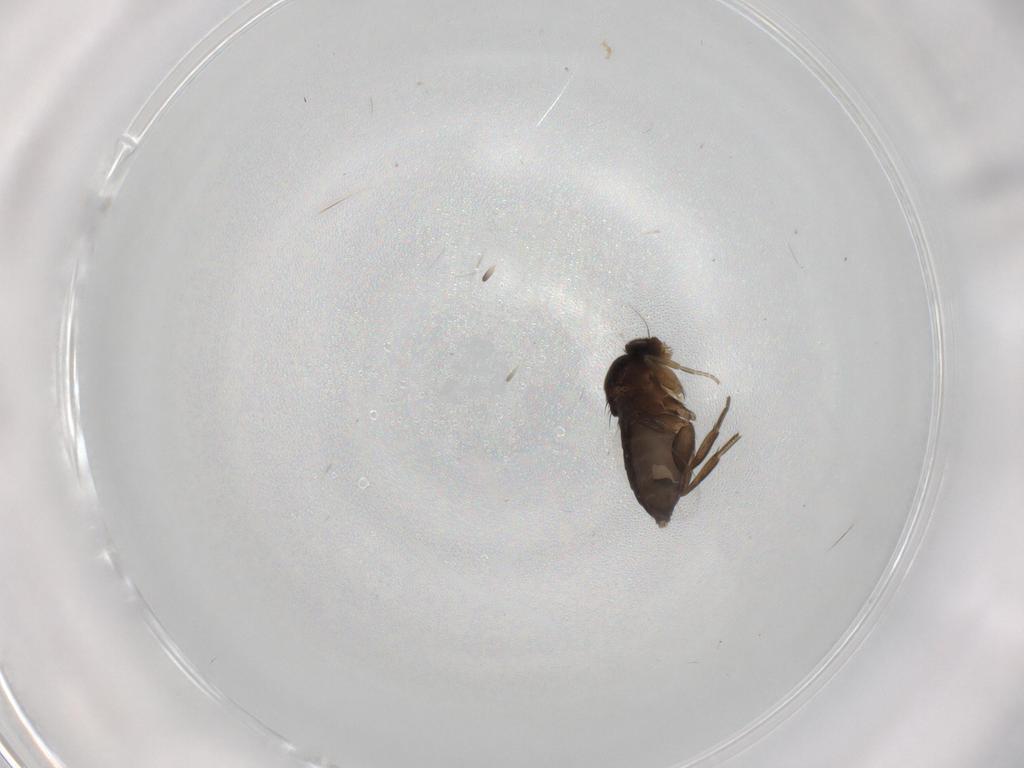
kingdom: Animalia
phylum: Arthropoda
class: Insecta
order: Diptera
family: Phoridae
